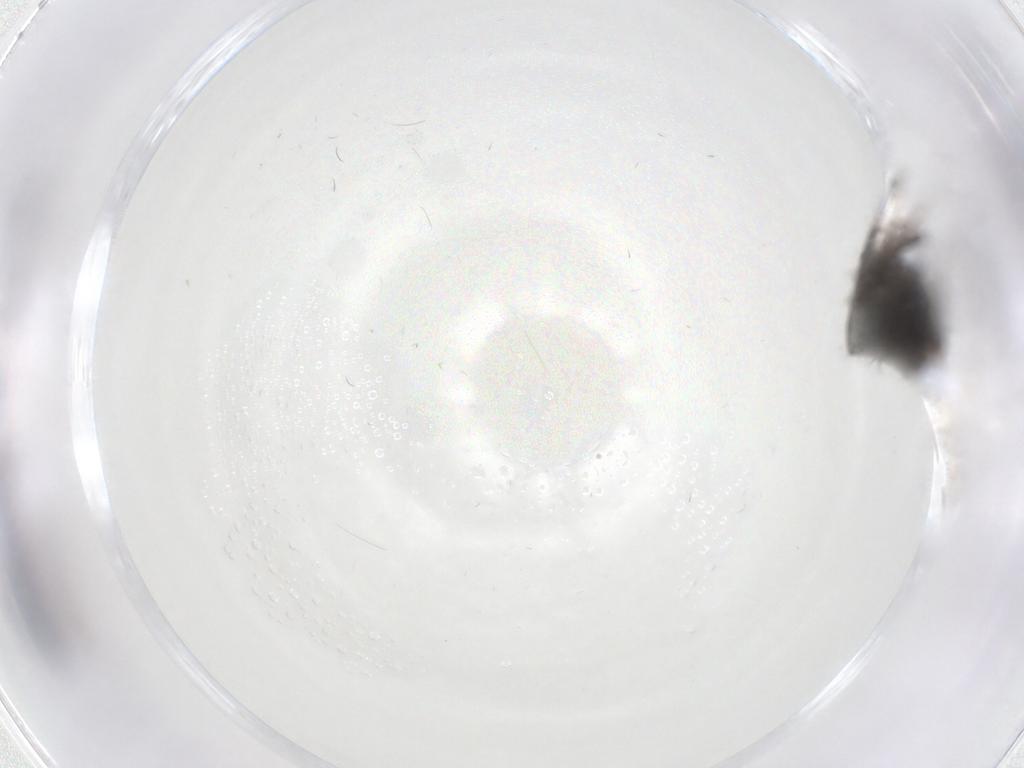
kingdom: Animalia
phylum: Arthropoda
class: Insecta
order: Diptera
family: Dolichopodidae
